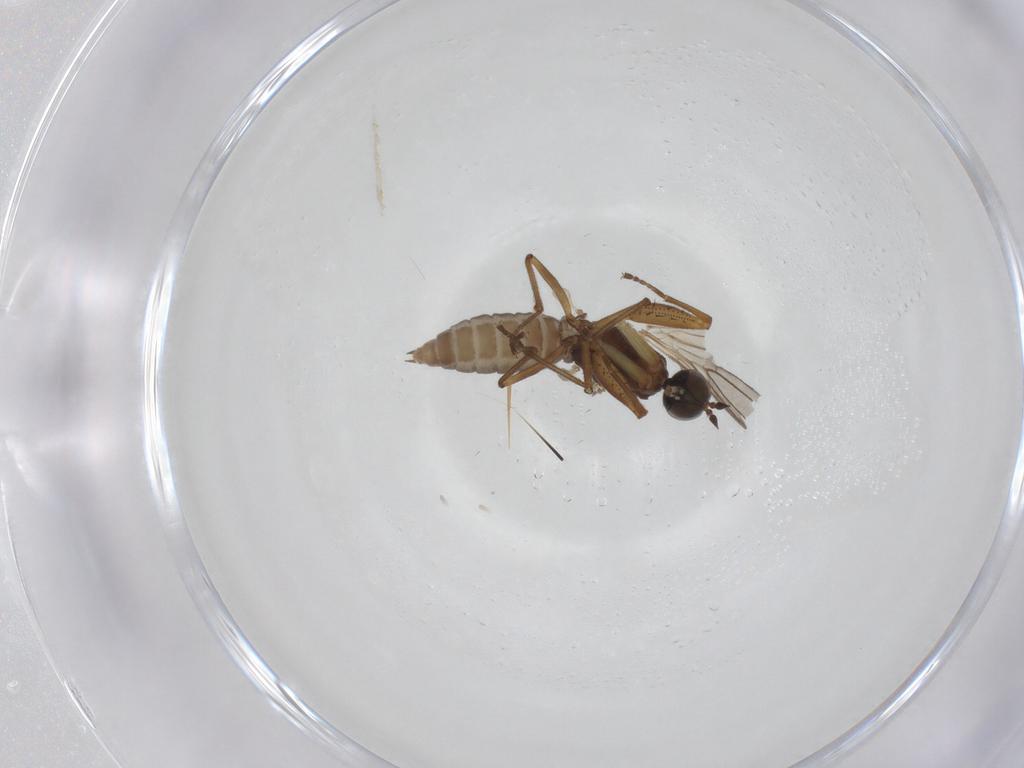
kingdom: Animalia
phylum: Arthropoda
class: Insecta
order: Diptera
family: Empididae
